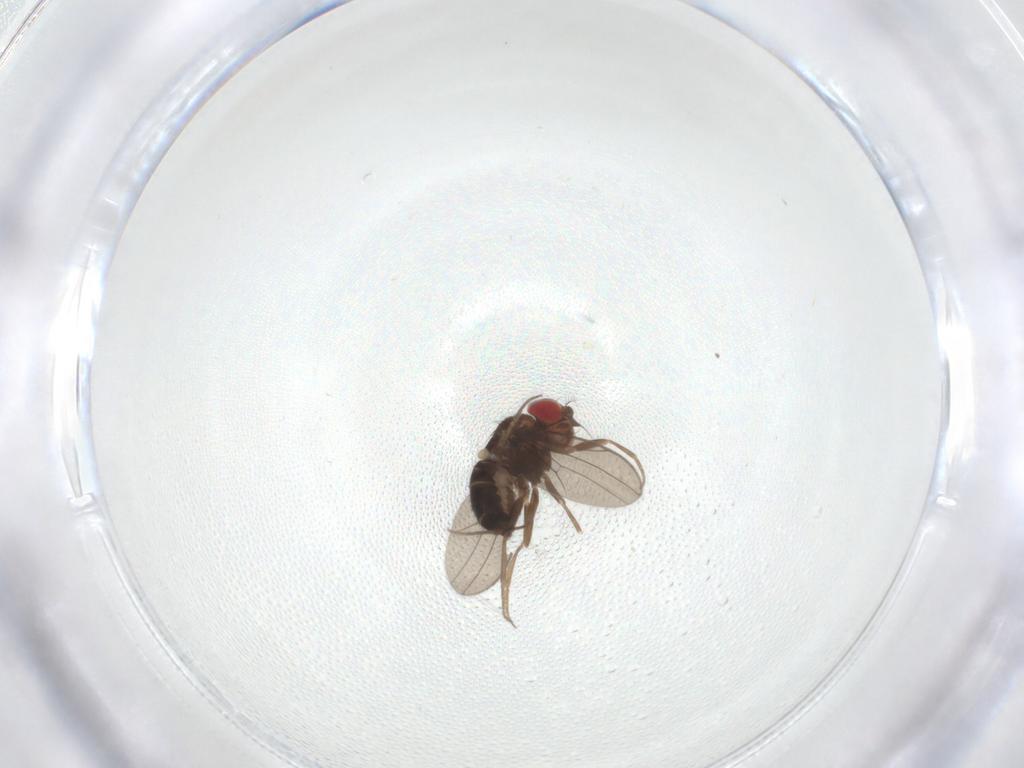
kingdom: Animalia
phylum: Arthropoda
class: Insecta
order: Diptera
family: Drosophilidae
